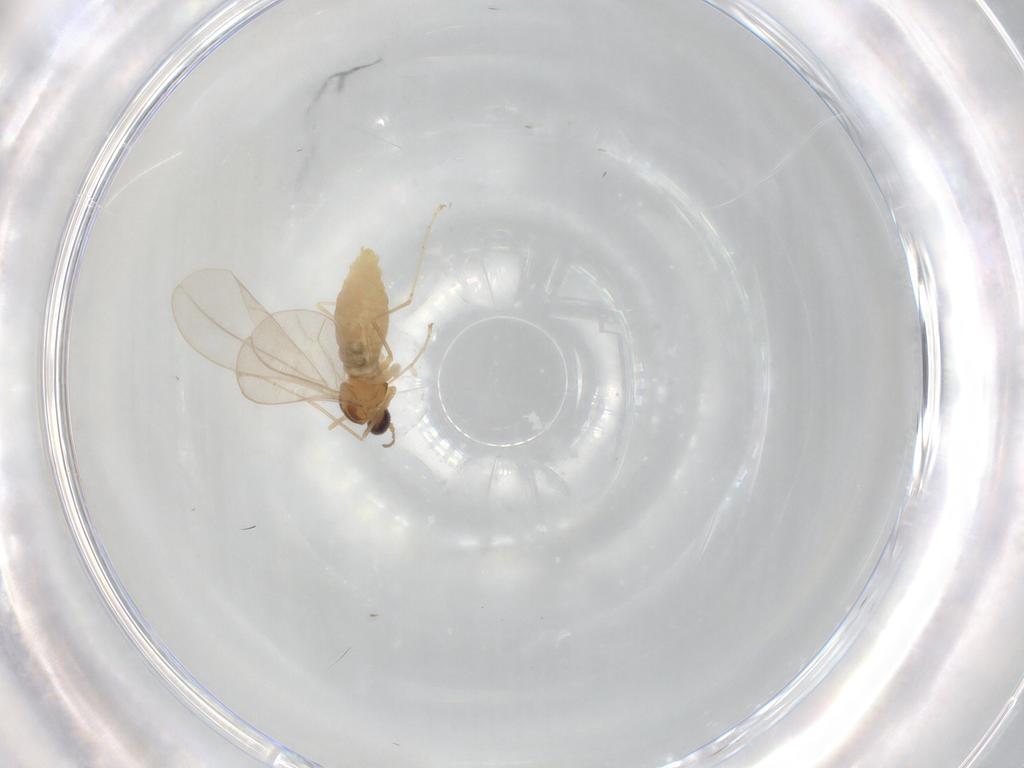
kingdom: Animalia
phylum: Arthropoda
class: Insecta
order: Diptera
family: Cecidomyiidae
